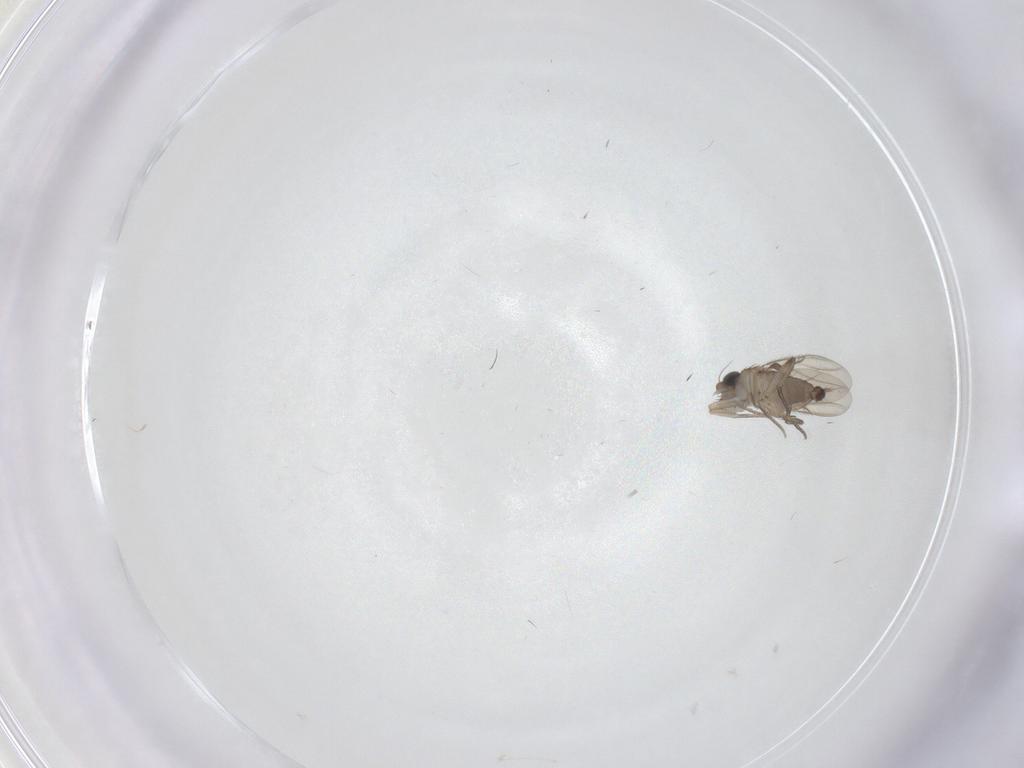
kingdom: Animalia
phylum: Arthropoda
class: Insecta
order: Diptera
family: Phoridae
